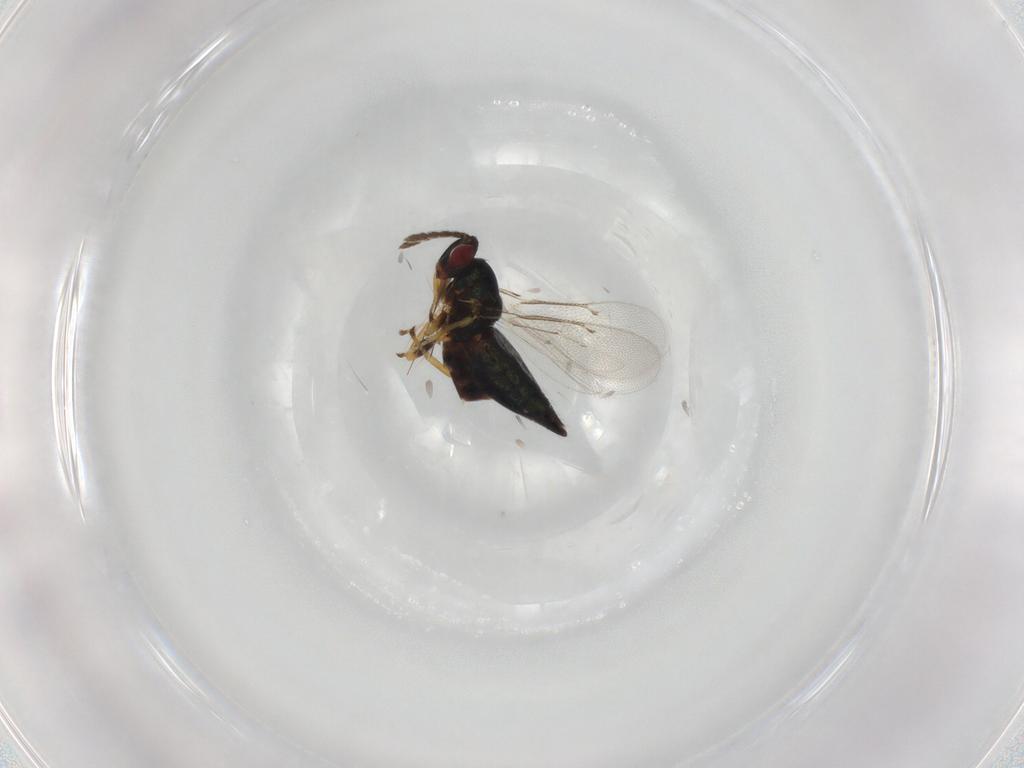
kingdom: Animalia
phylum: Arthropoda
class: Insecta
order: Hymenoptera
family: Eulophidae
